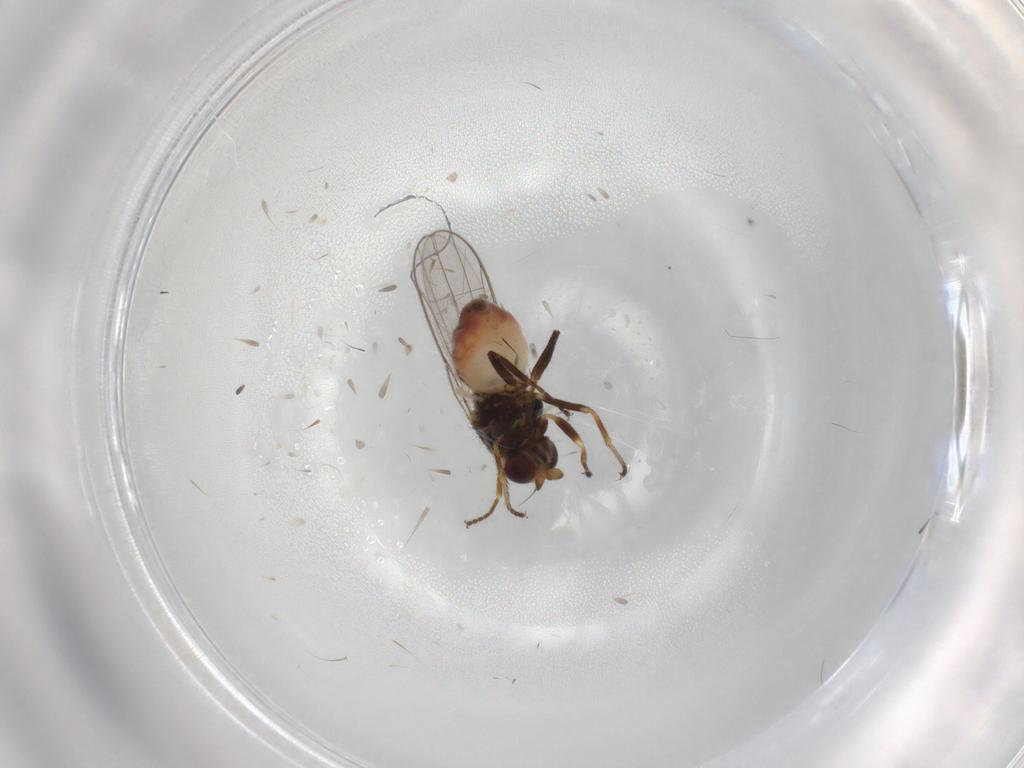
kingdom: Animalia
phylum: Arthropoda
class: Insecta
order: Diptera
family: Chloropidae
